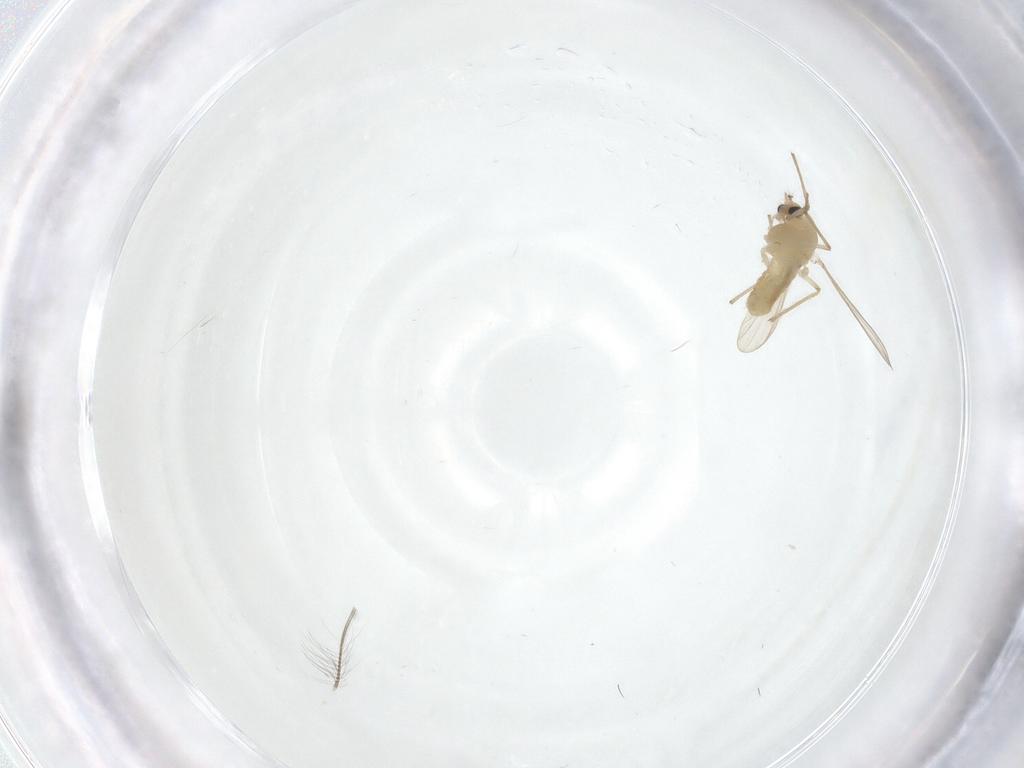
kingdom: Animalia
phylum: Arthropoda
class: Insecta
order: Diptera
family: Chironomidae
